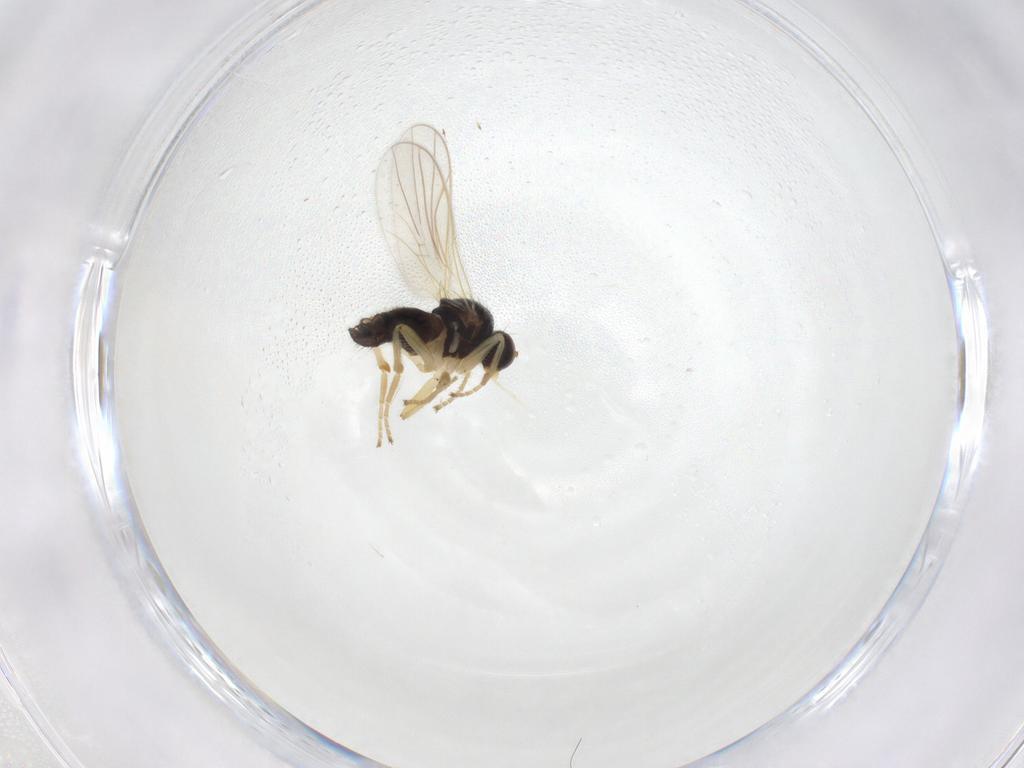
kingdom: Animalia
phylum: Arthropoda
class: Insecta
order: Diptera
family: Hybotidae
